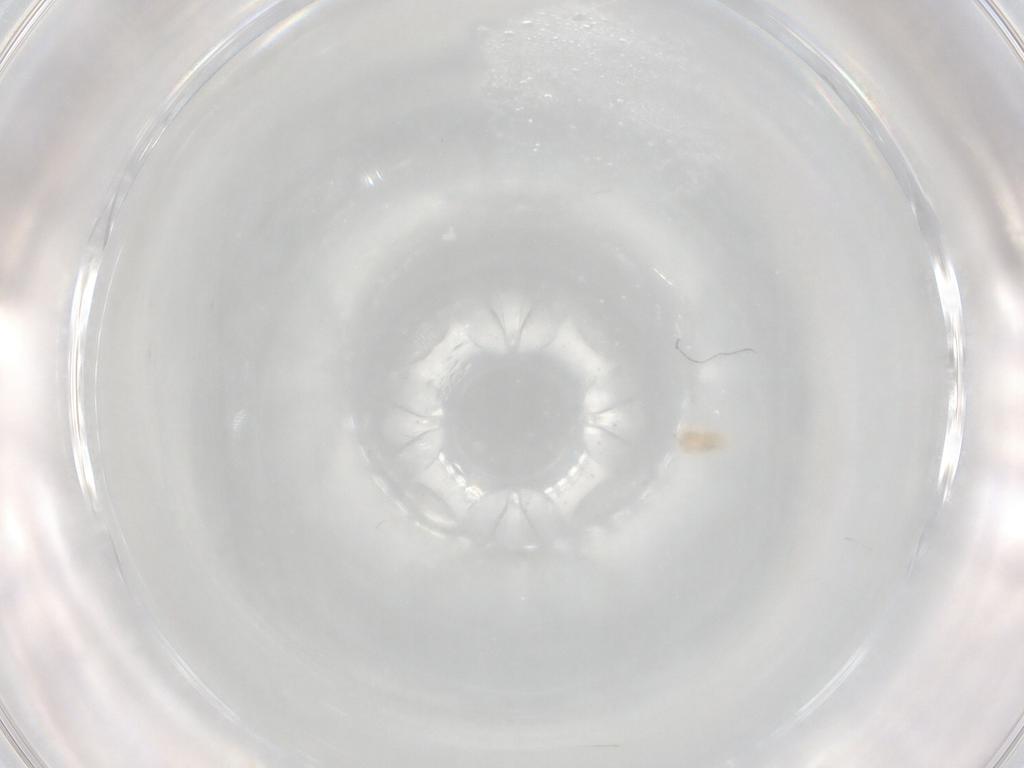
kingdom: Animalia
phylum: Arthropoda
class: Arachnida
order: Trombidiformes
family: Eupodidae
